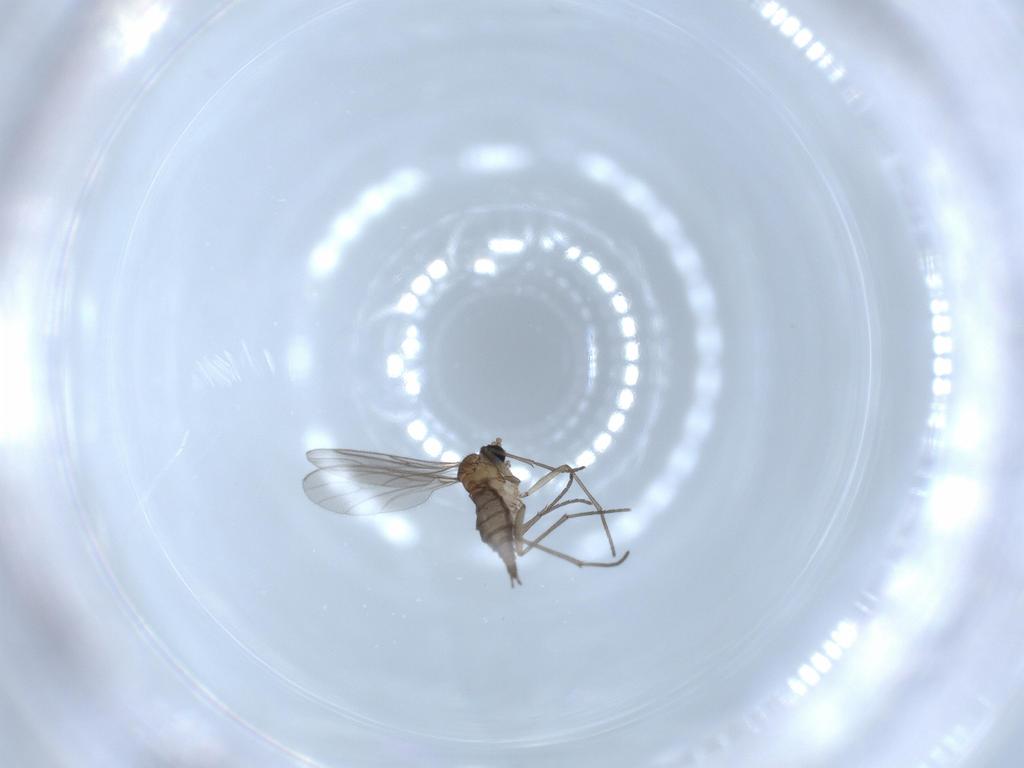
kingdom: Animalia
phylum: Arthropoda
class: Insecta
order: Diptera
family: Sciaridae
